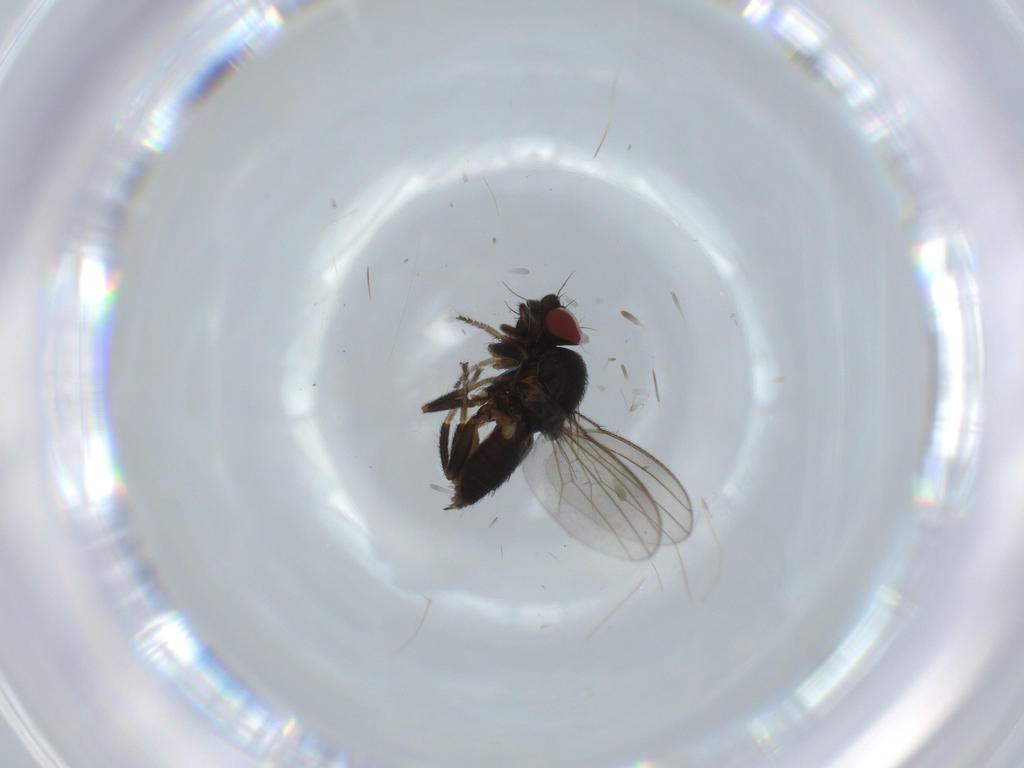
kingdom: Animalia
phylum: Arthropoda
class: Insecta
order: Diptera
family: Milichiidae
